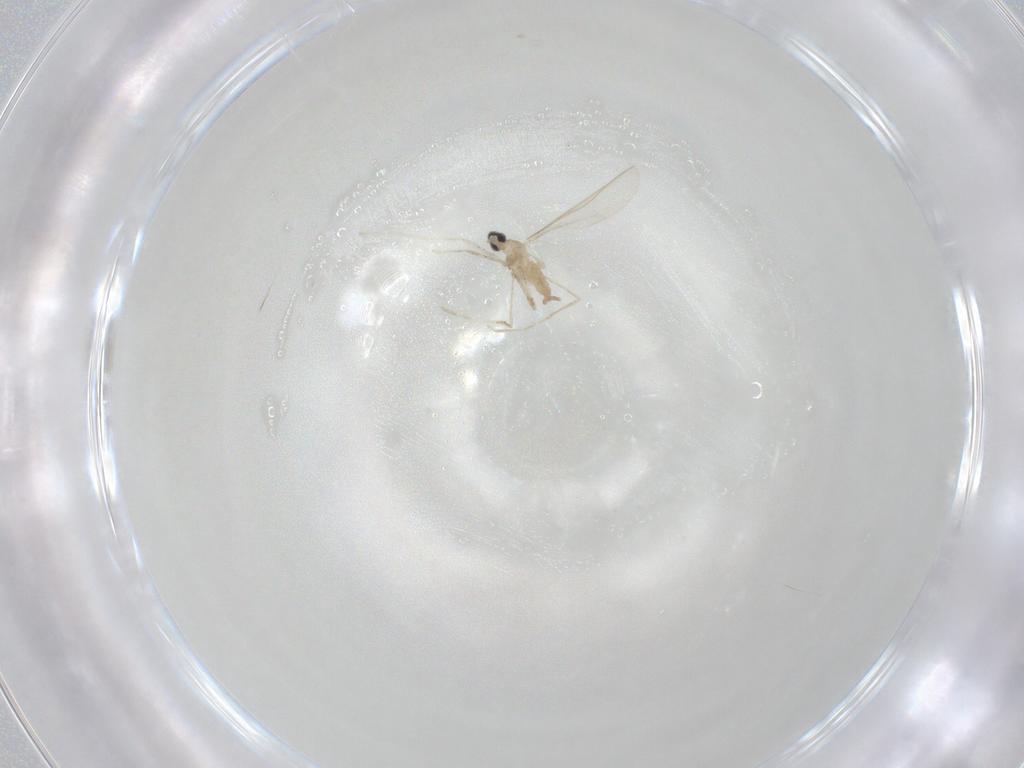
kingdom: Animalia
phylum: Arthropoda
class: Insecta
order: Diptera
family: Cecidomyiidae
